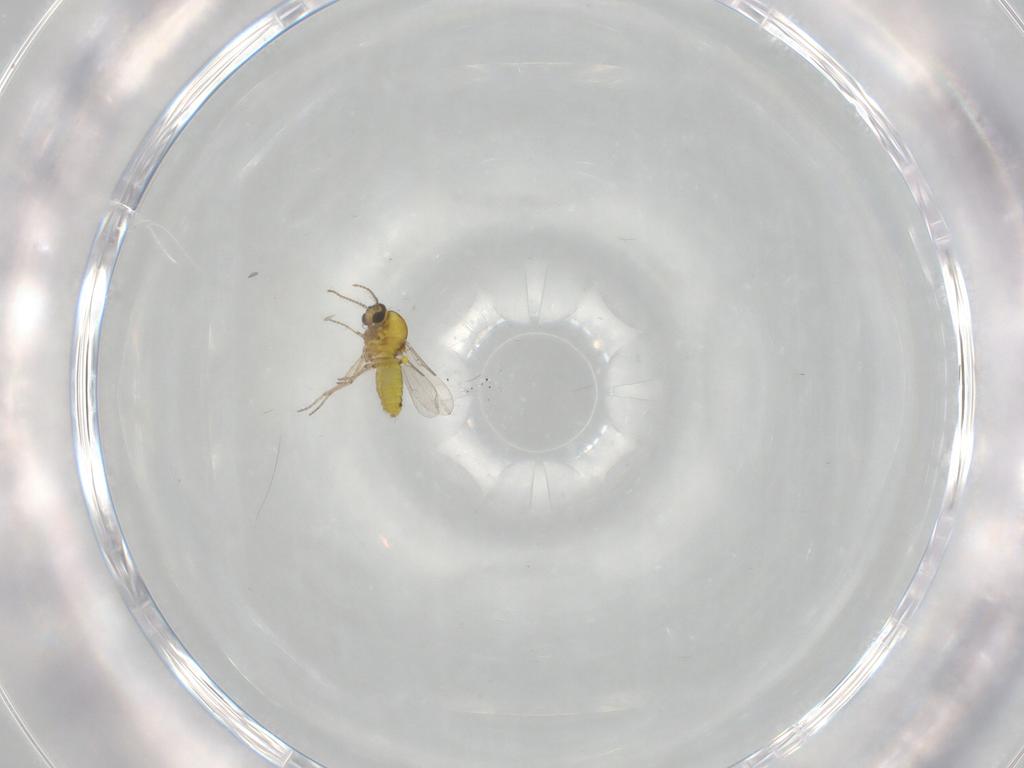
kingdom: Animalia
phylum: Arthropoda
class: Insecta
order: Diptera
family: Ceratopogonidae
